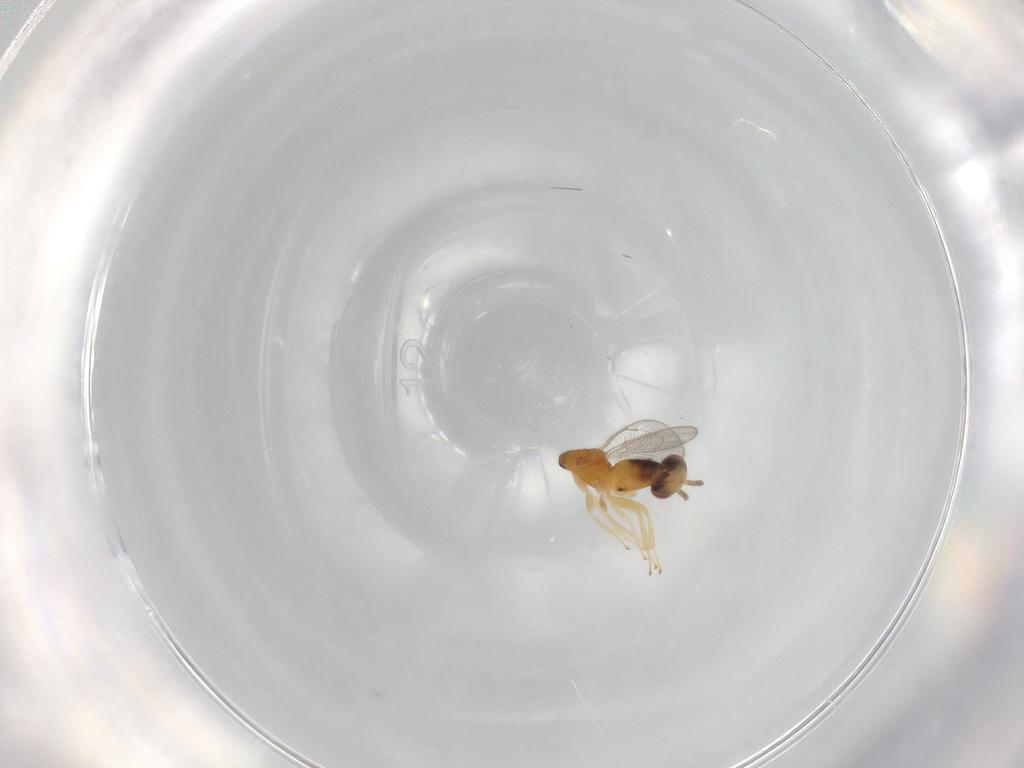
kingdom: Animalia
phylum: Arthropoda
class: Insecta
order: Hymenoptera
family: Eulophidae
